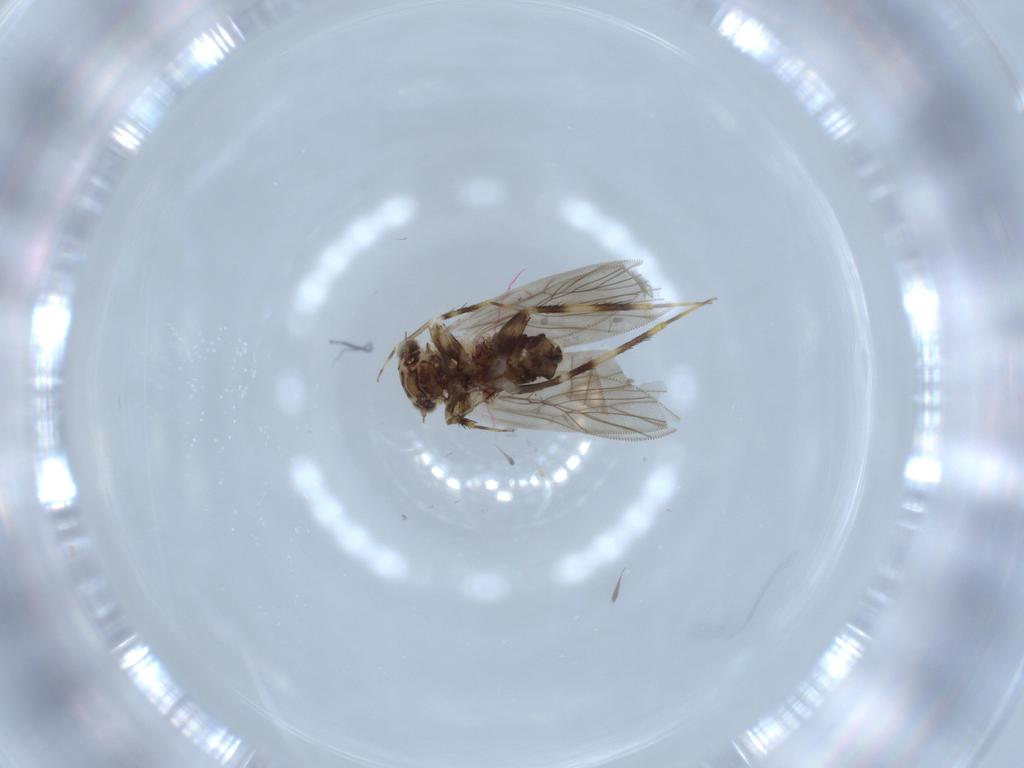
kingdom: Animalia
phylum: Arthropoda
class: Insecta
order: Psocodea
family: Lepidopsocidae
